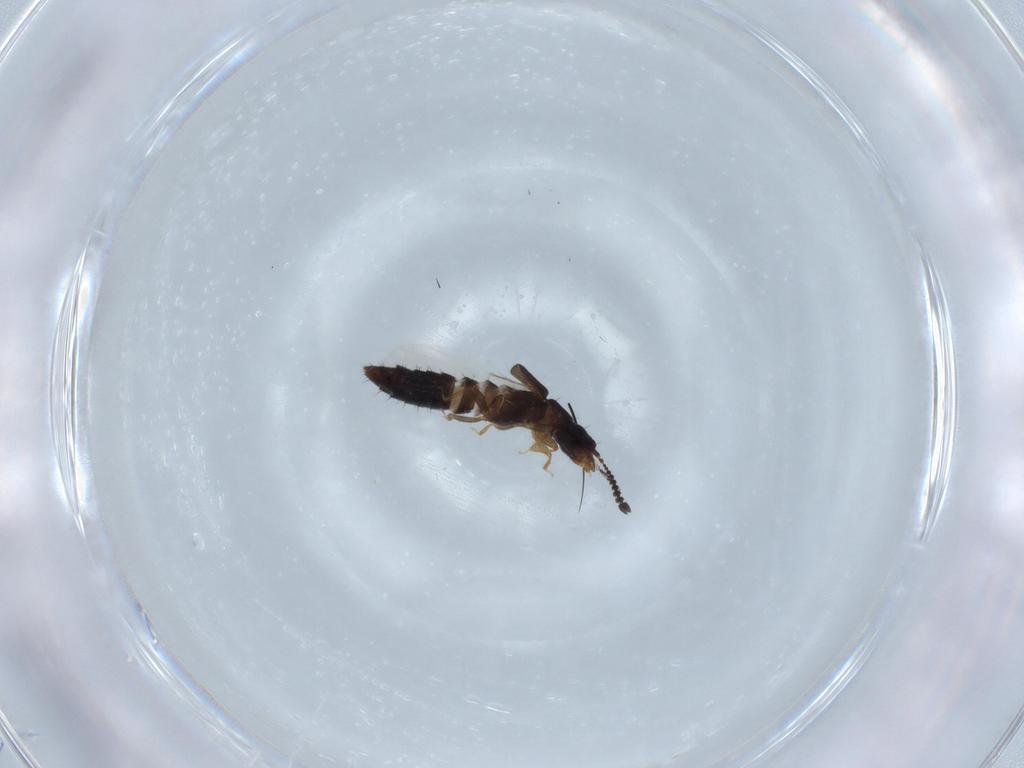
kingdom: Animalia
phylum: Arthropoda
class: Insecta
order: Coleoptera
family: Staphylinidae
